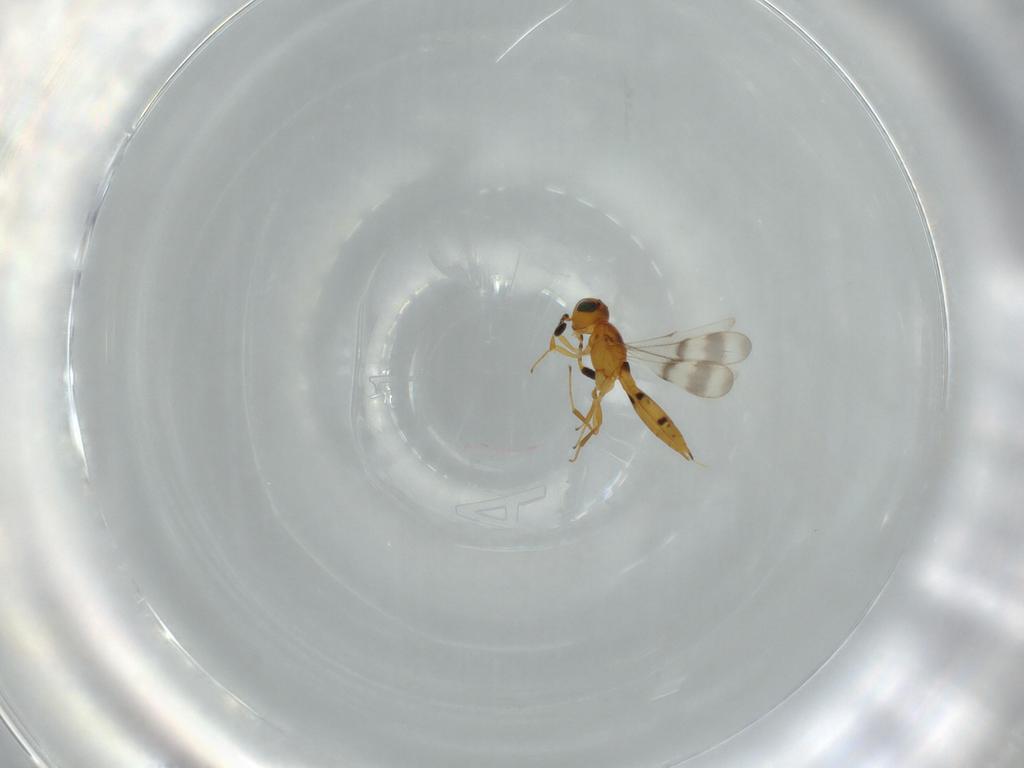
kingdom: Animalia
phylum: Arthropoda
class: Insecta
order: Hymenoptera
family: Scelionidae
